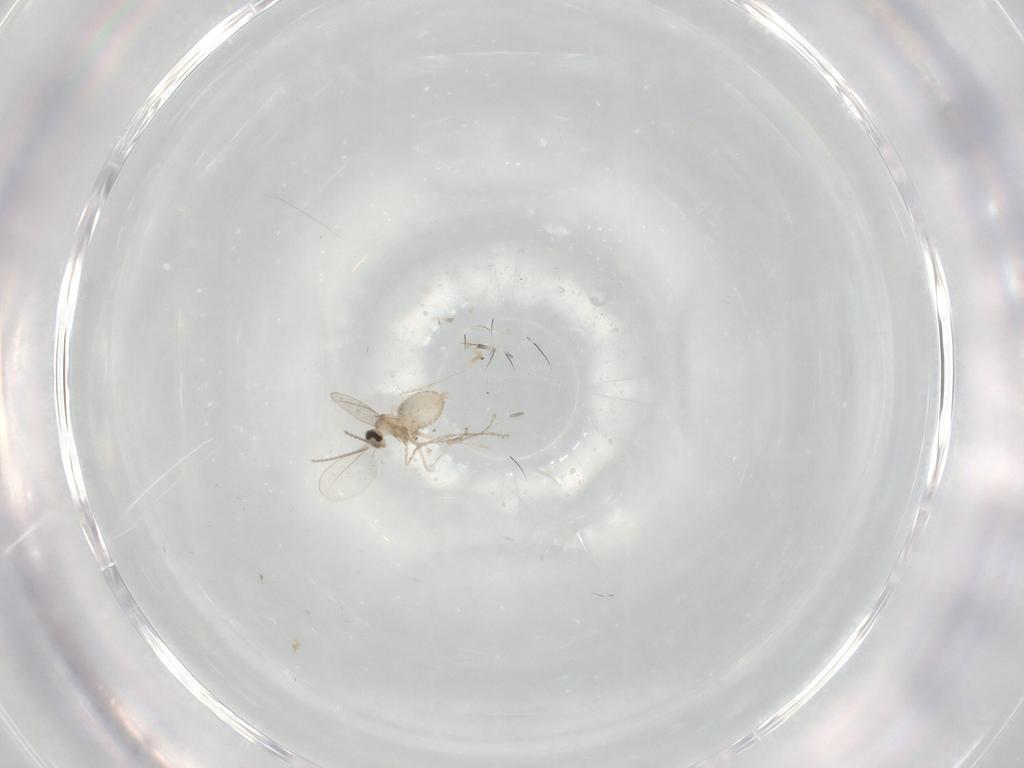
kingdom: Animalia
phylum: Arthropoda
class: Insecta
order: Diptera
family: Cecidomyiidae
